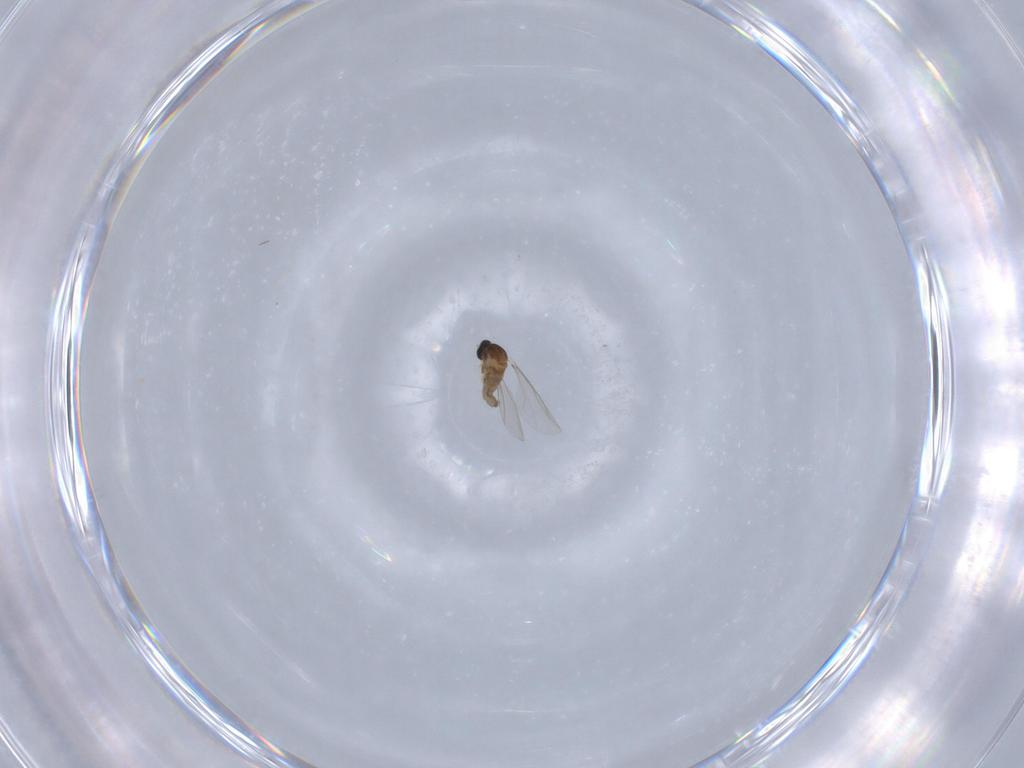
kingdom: Animalia
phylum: Arthropoda
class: Insecta
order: Diptera
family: Cecidomyiidae
